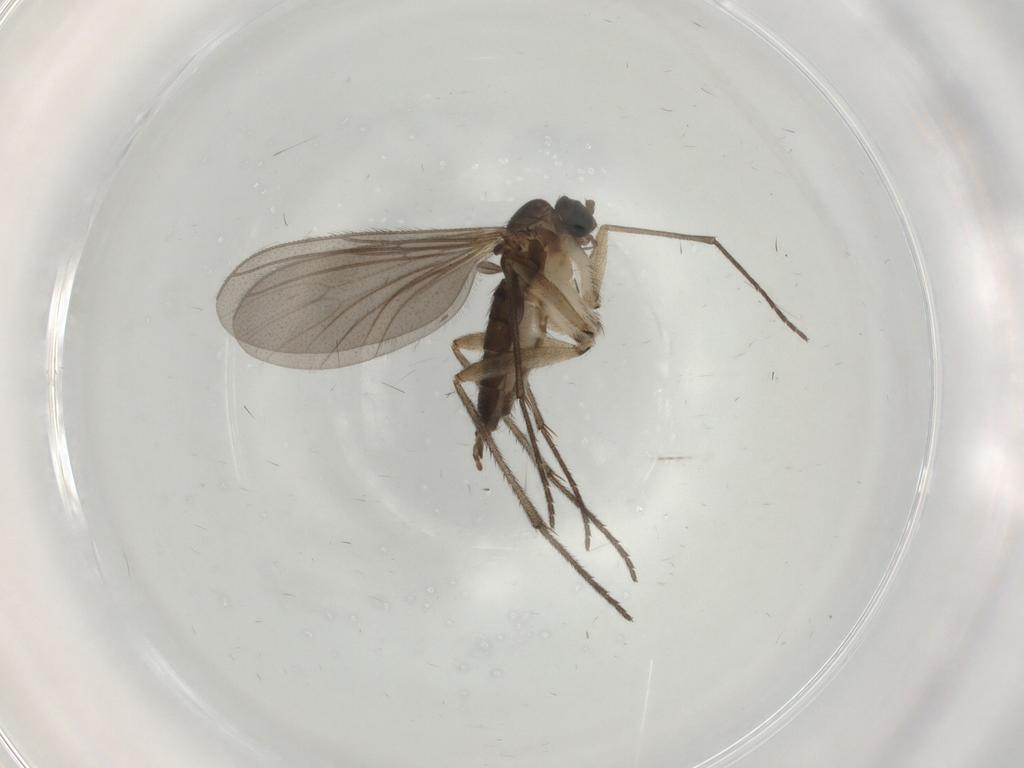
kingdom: Animalia
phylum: Arthropoda
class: Insecta
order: Diptera
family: Sciaridae
